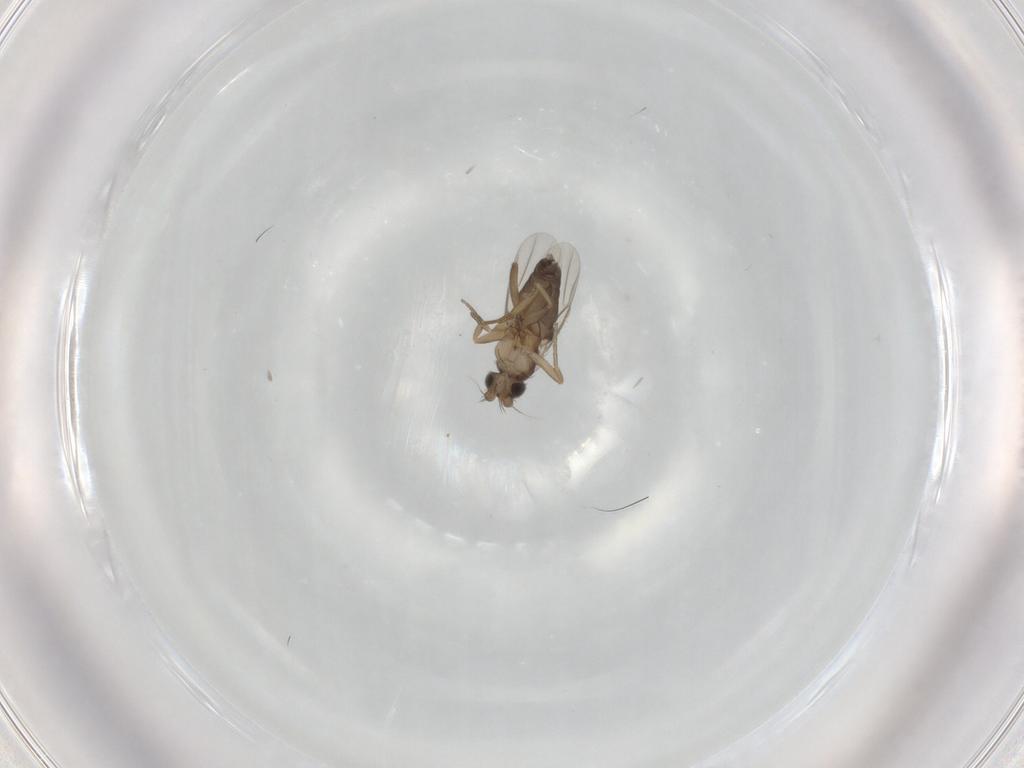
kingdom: Animalia
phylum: Arthropoda
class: Insecta
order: Diptera
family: Phoridae
